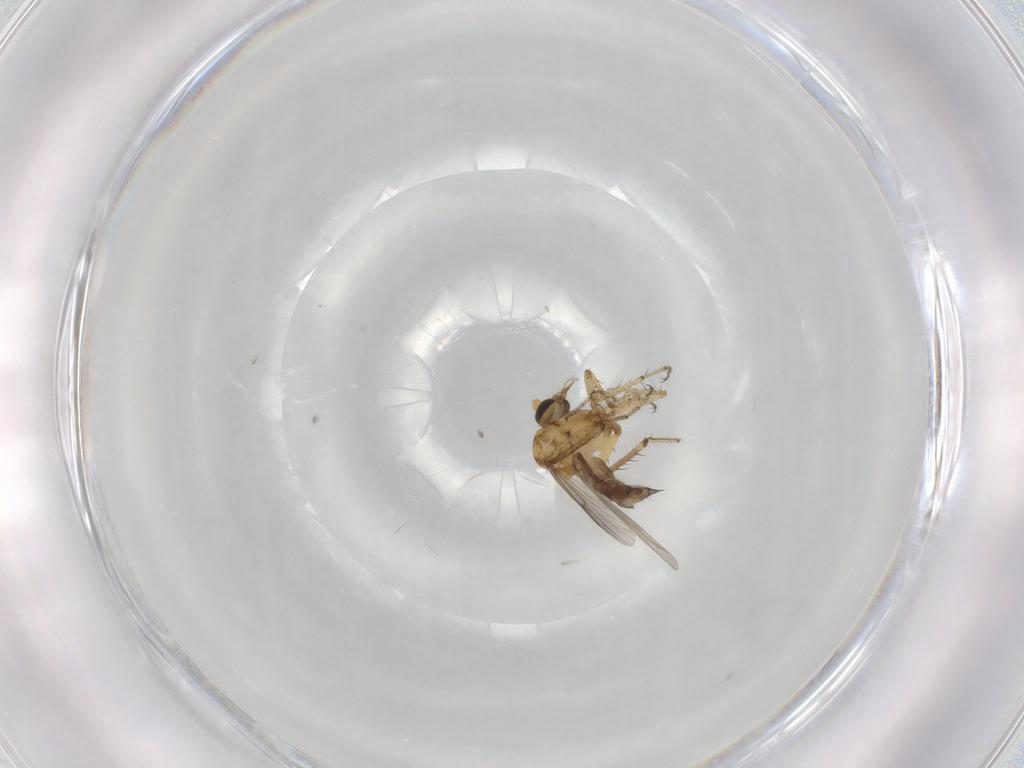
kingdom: Animalia
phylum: Arthropoda
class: Insecta
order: Diptera
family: Ceratopogonidae
